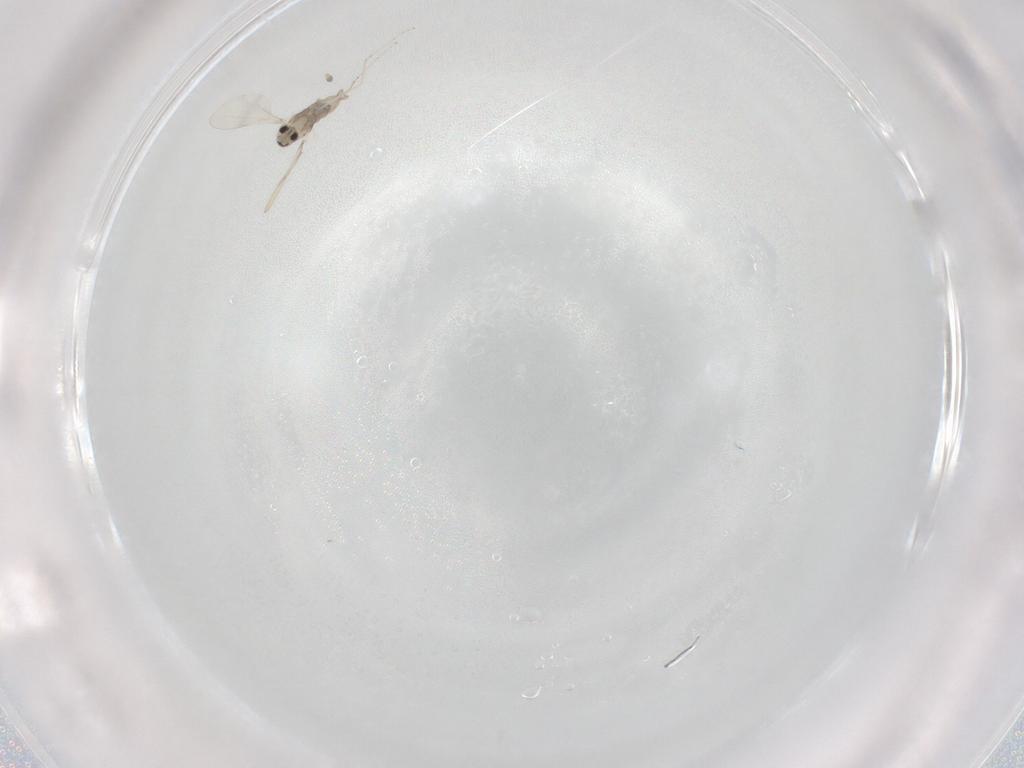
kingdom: Animalia
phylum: Arthropoda
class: Insecta
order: Diptera
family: Cecidomyiidae
